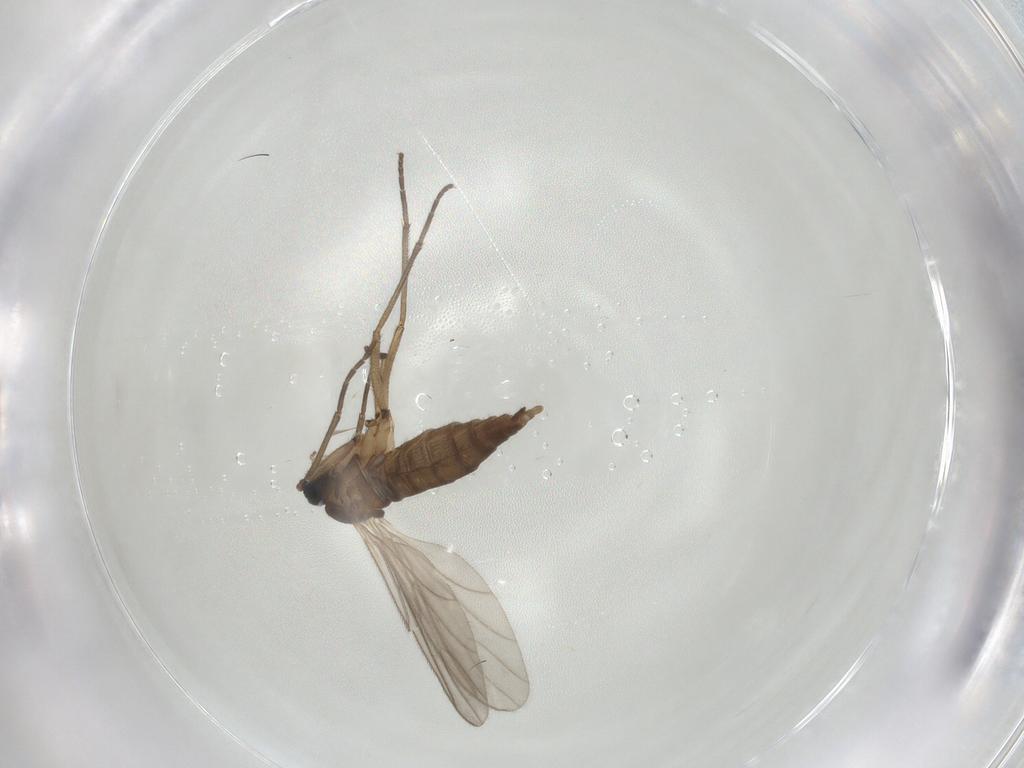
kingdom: Animalia
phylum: Arthropoda
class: Insecta
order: Diptera
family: Sciaridae
